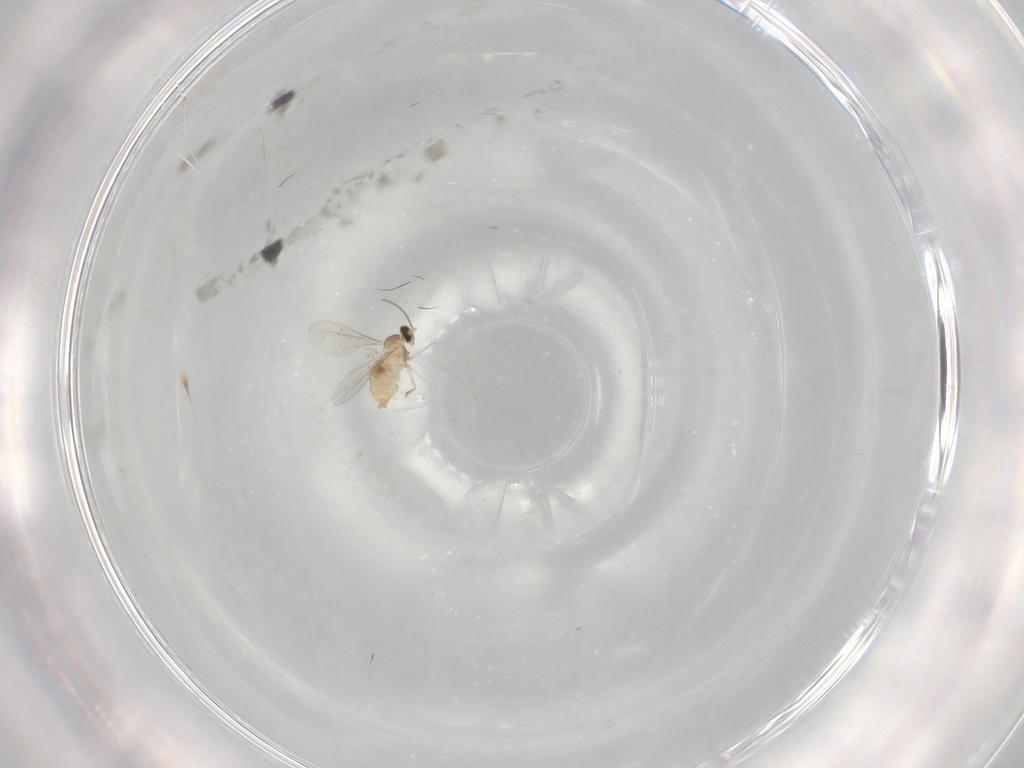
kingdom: Animalia
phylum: Arthropoda
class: Insecta
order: Diptera
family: Cecidomyiidae
